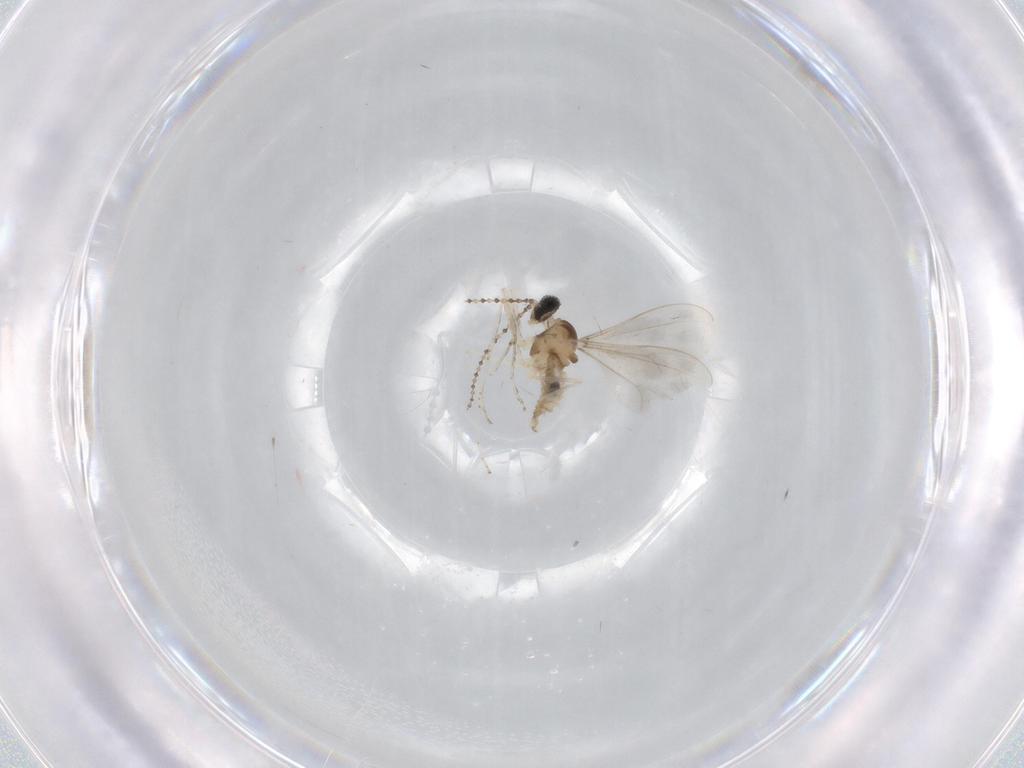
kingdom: Animalia
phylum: Arthropoda
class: Insecta
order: Diptera
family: Cecidomyiidae
